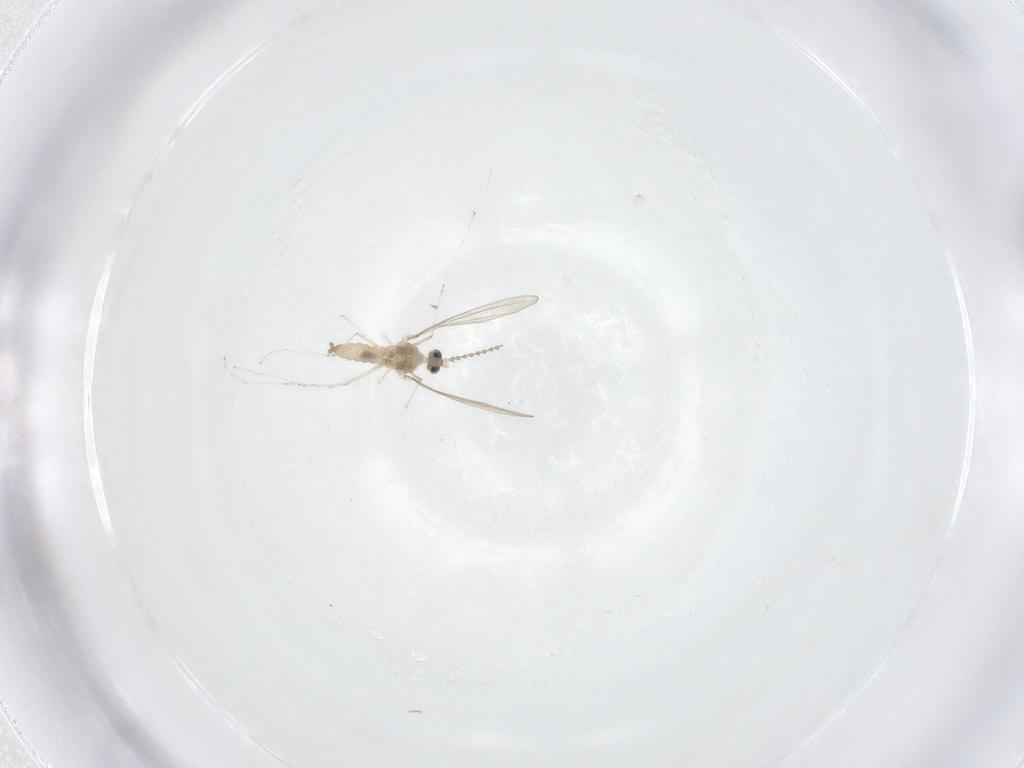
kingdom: Animalia
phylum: Arthropoda
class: Insecta
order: Diptera
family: Cecidomyiidae
